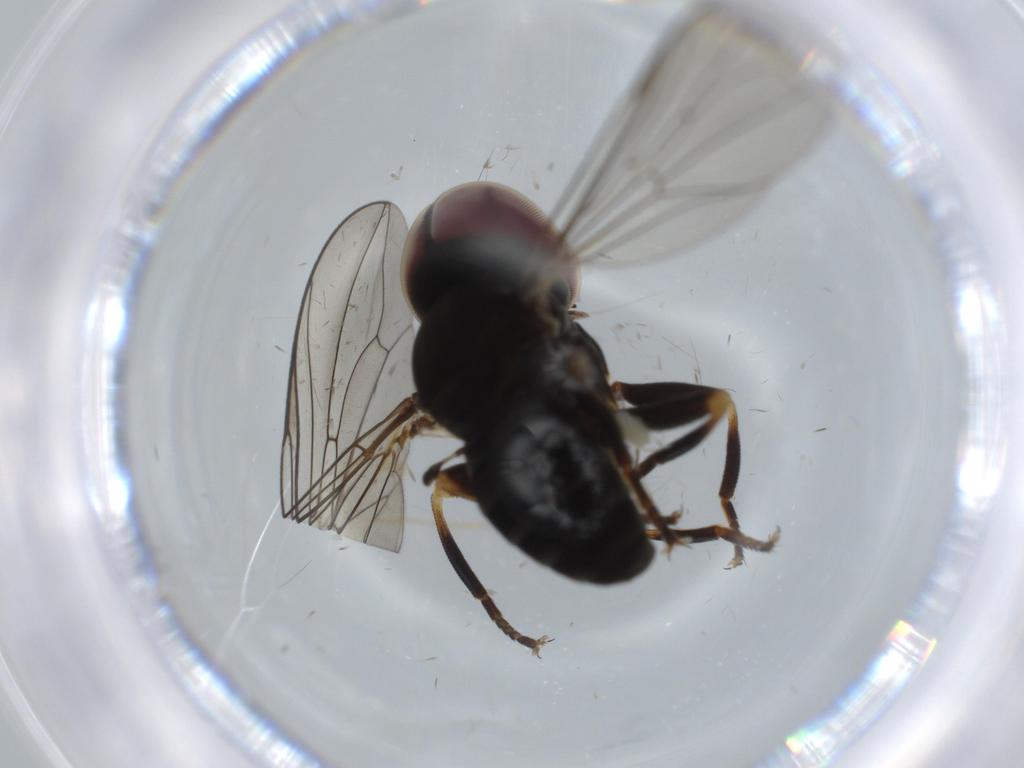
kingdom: Animalia
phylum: Arthropoda
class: Insecta
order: Diptera
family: Chironomidae
